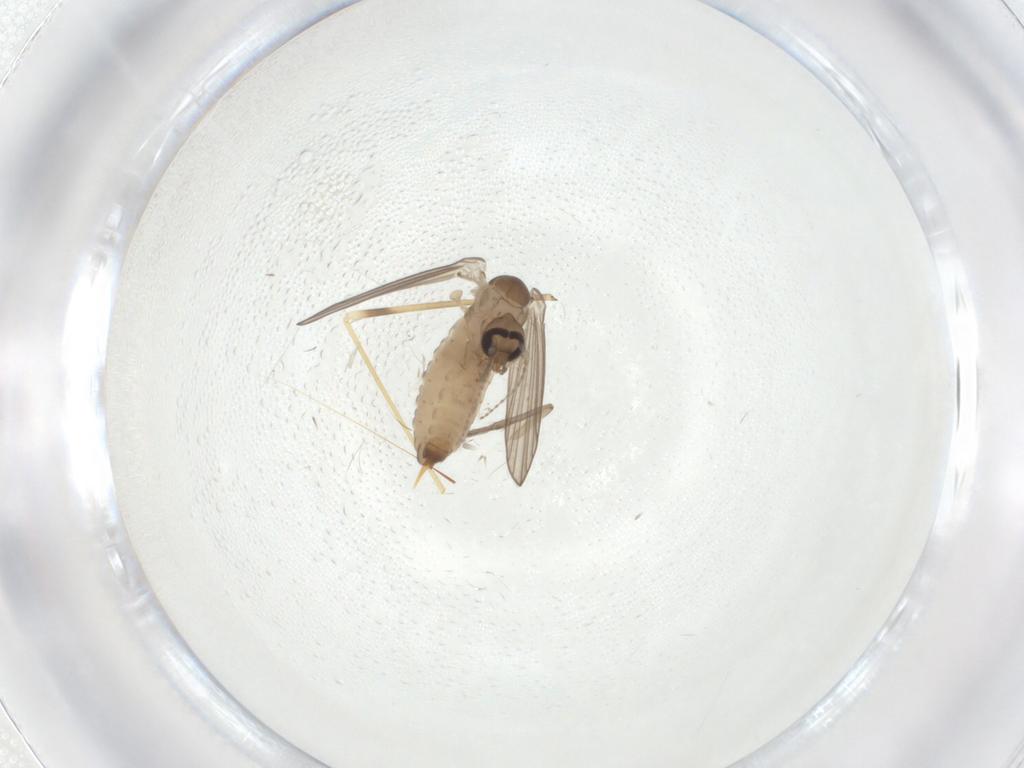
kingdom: Animalia
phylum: Arthropoda
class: Insecta
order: Diptera
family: Limoniidae
